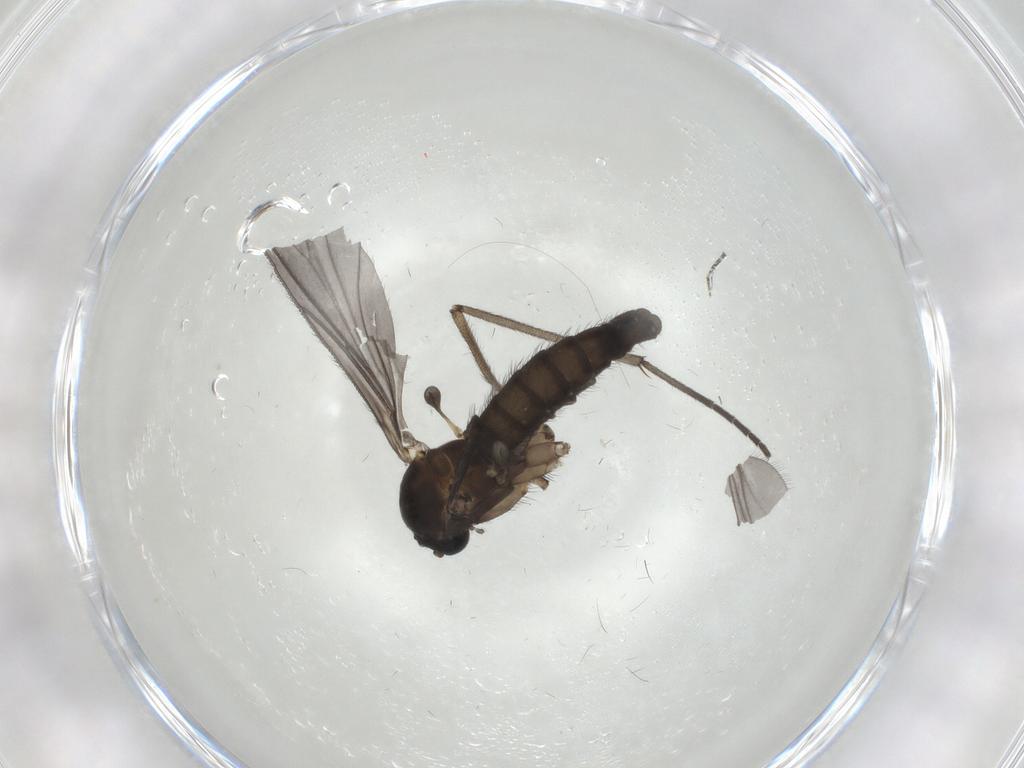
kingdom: Animalia
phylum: Arthropoda
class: Insecta
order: Diptera
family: Sciaridae
